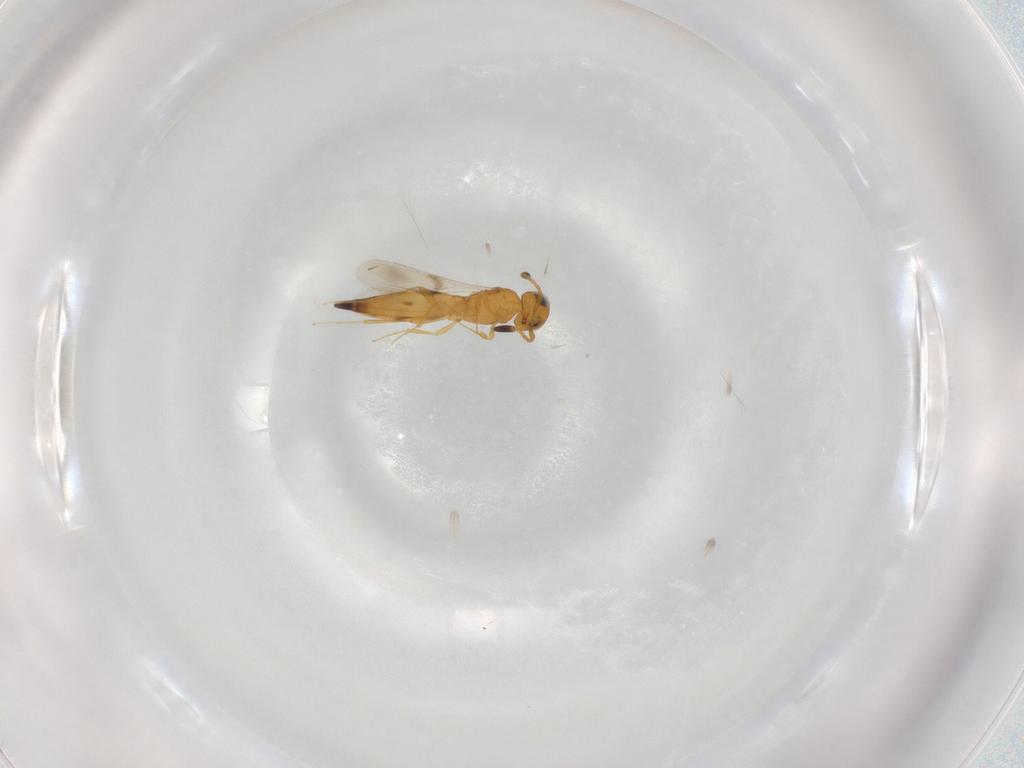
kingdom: Animalia
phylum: Arthropoda
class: Insecta
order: Hymenoptera
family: Scelionidae
